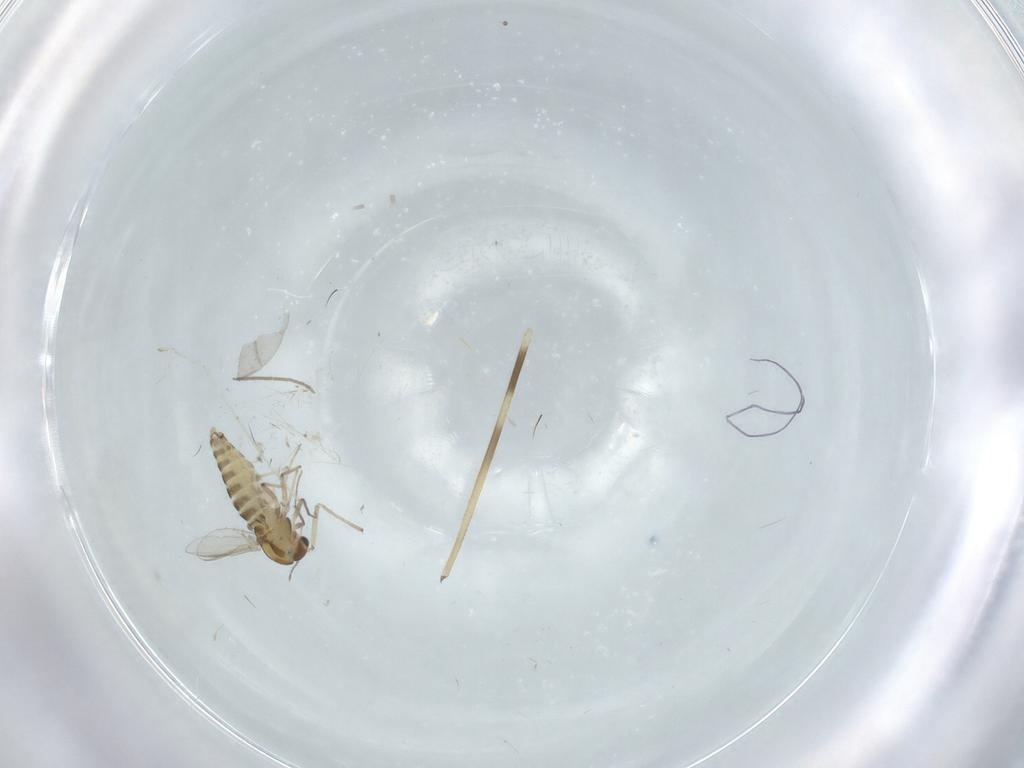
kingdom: Animalia
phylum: Arthropoda
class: Insecta
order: Diptera
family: Chironomidae
